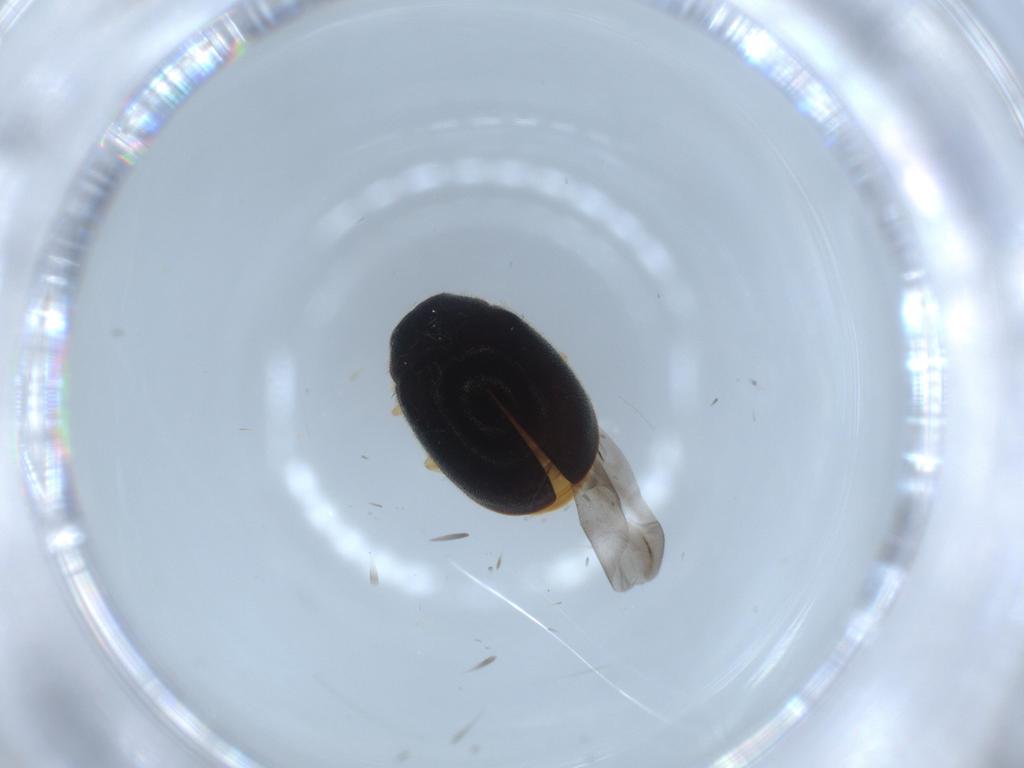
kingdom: Animalia
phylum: Arthropoda
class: Insecta
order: Coleoptera
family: Coccinellidae
